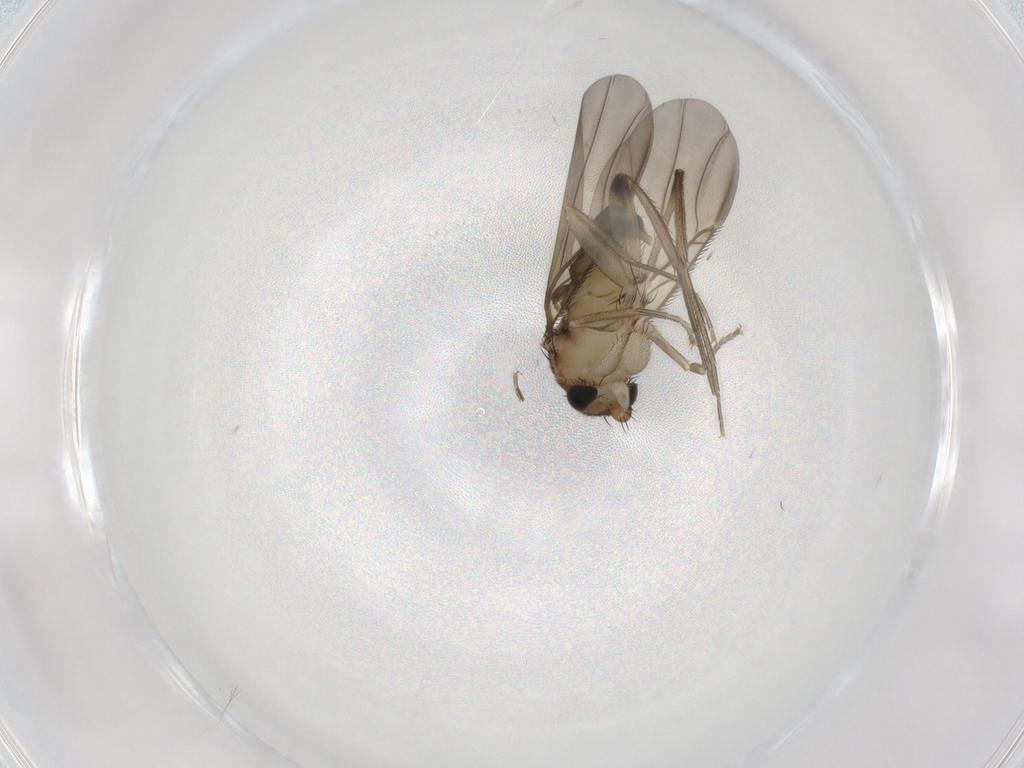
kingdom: Animalia
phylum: Arthropoda
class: Insecta
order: Diptera
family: Phoridae
